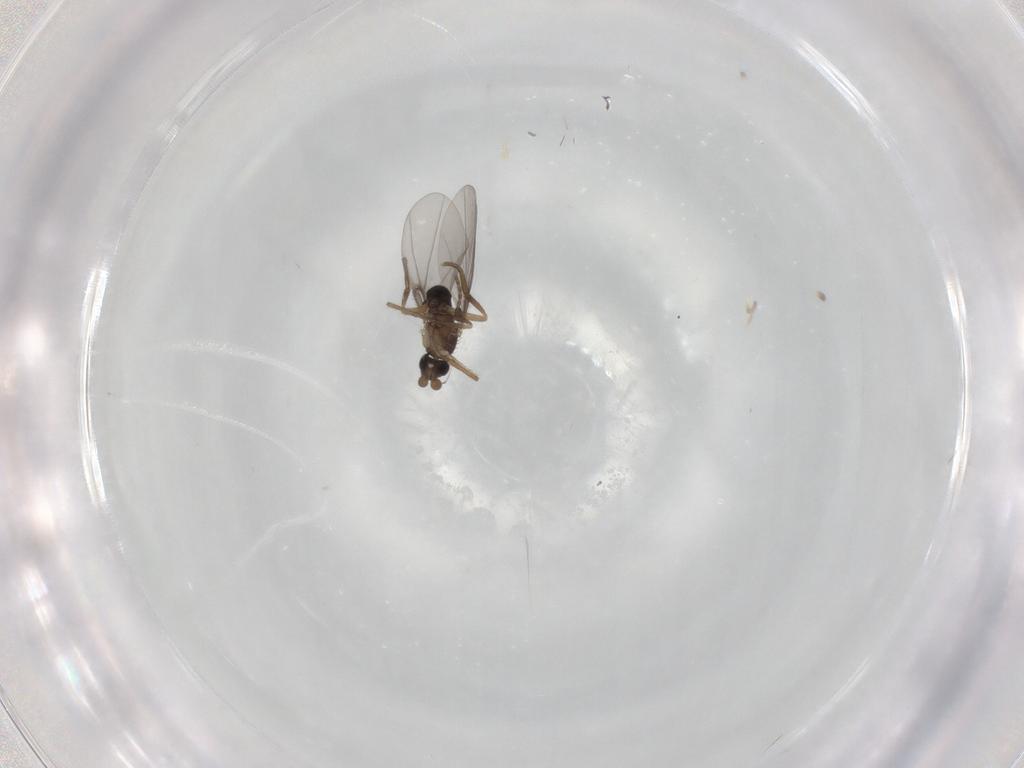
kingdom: Animalia
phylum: Arthropoda
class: Insecta
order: Diptera
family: Phoridae
